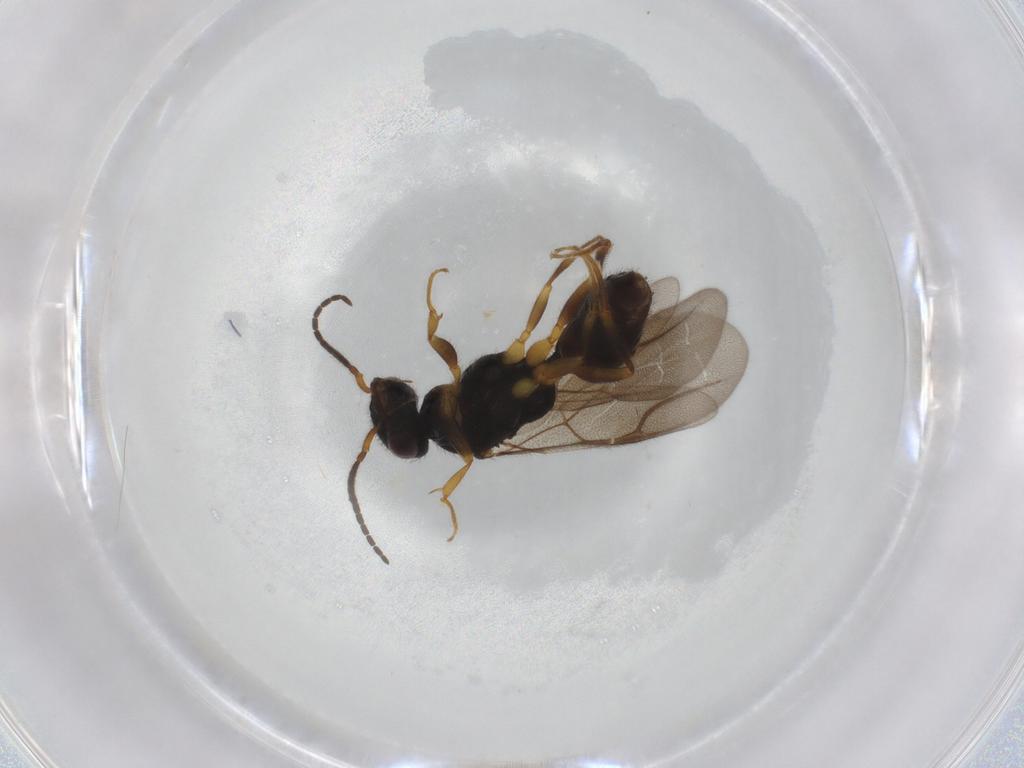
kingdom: Animalia
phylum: Arthropoda
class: Insecta
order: Hymenoptera
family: Bethylidae
